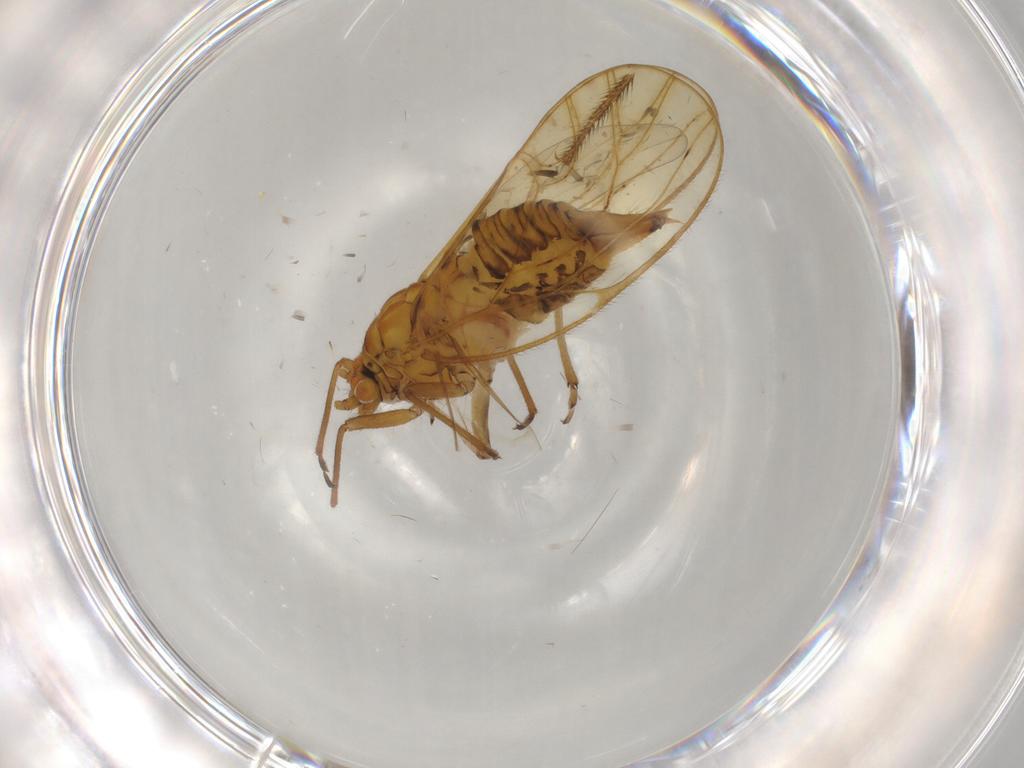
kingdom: Animalia
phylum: Arthropoda
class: Insecta
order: Hemiptera
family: Psyllidae
